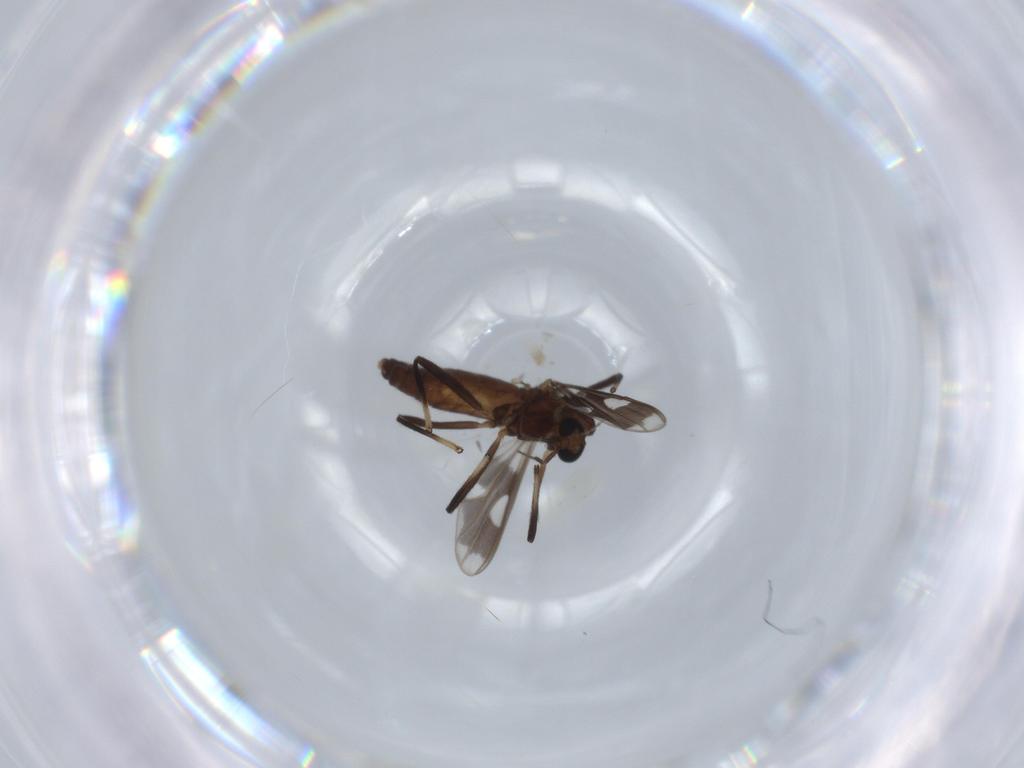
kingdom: Animalia
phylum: Arthropoda
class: Insecta
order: Diptera
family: Chironomidae
